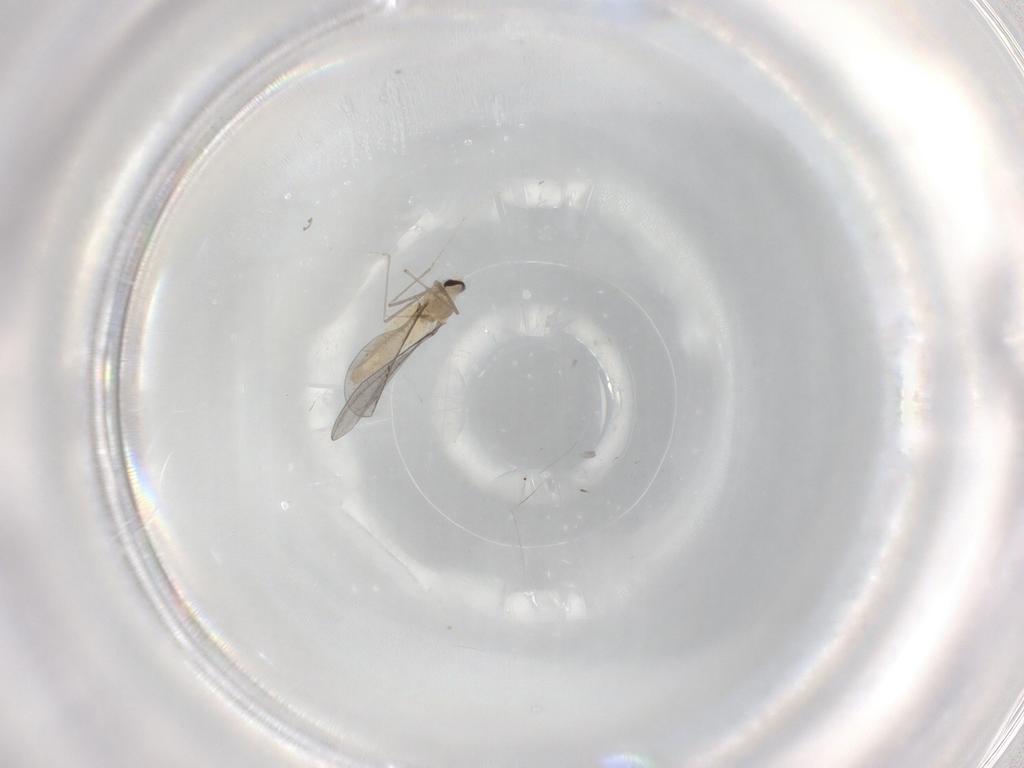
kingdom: Animalia
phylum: Arthropoda
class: Insecta
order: Diptera
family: Cecidomyiidae
